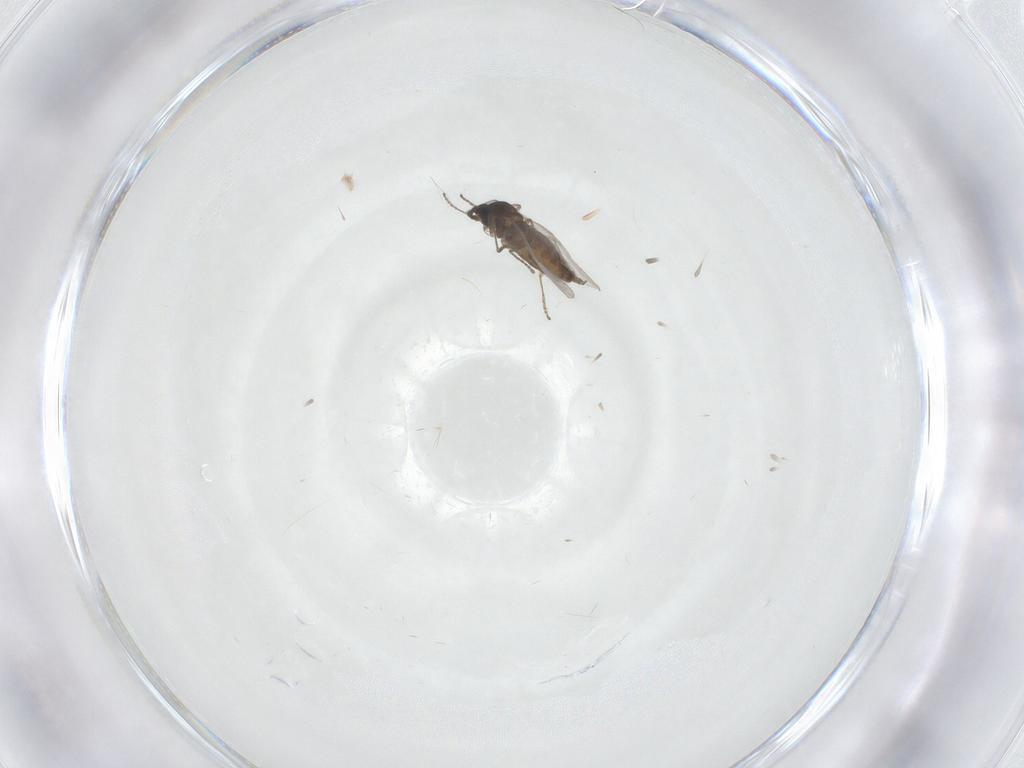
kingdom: Animalia
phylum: Arthropoda
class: Insecta
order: Diptera
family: Cecidomyiidae
